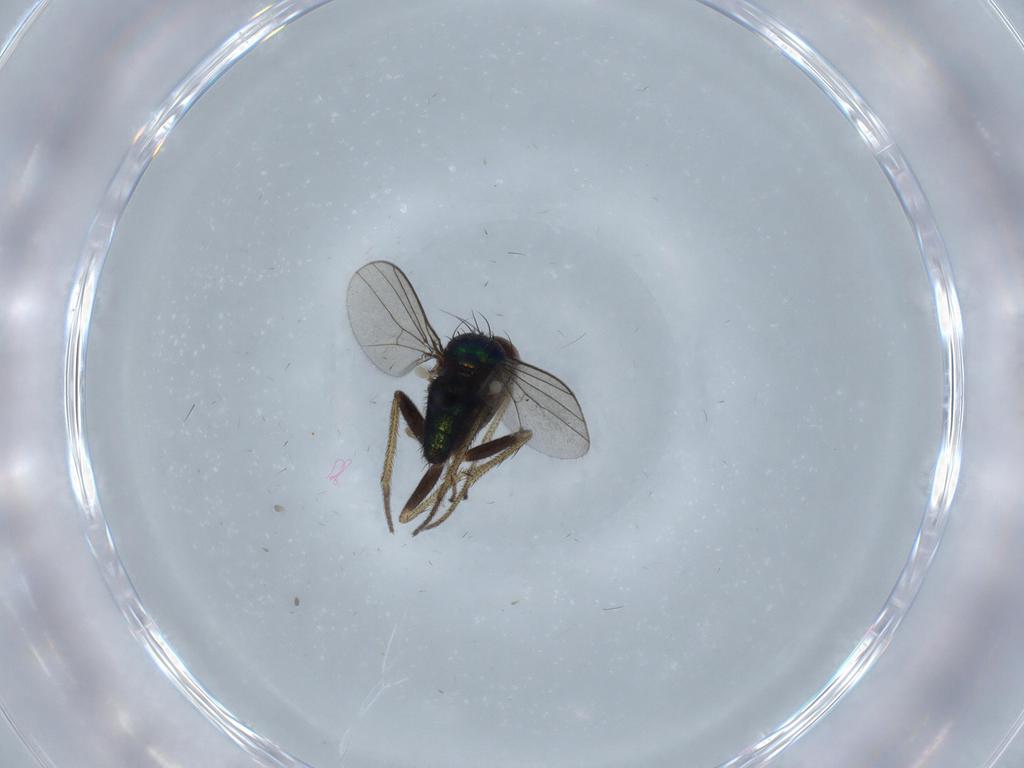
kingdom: Animalia
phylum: Arthropoda
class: Insecta
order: Diptera
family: Dolichopodidae
